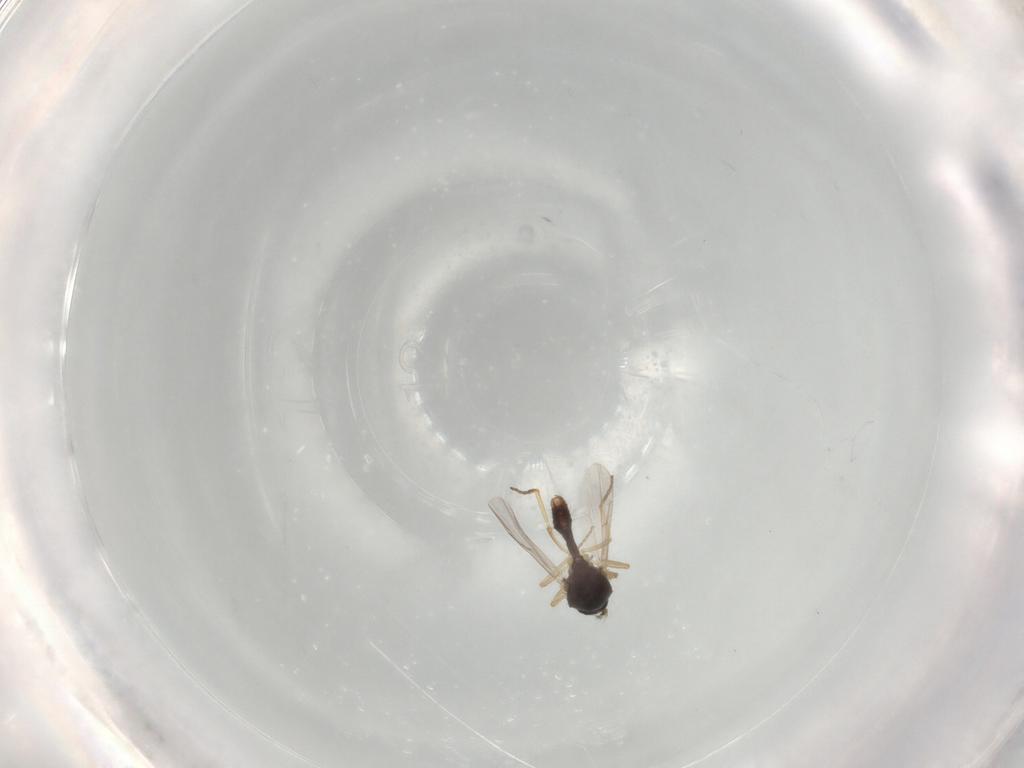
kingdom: Animalia
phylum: Arthropoda
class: Insecta
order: Diptera
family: Ceratopogonidae
